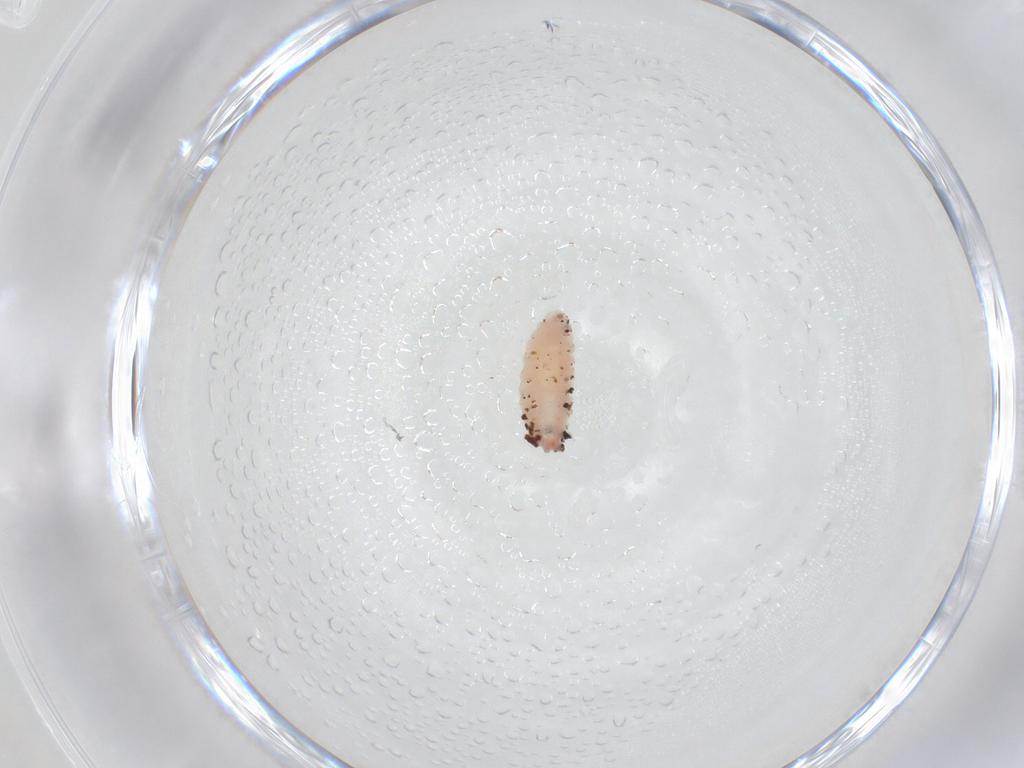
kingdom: Animalia
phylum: Arthropoda
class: Insecta
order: Diptera
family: Cecidomyiidae
